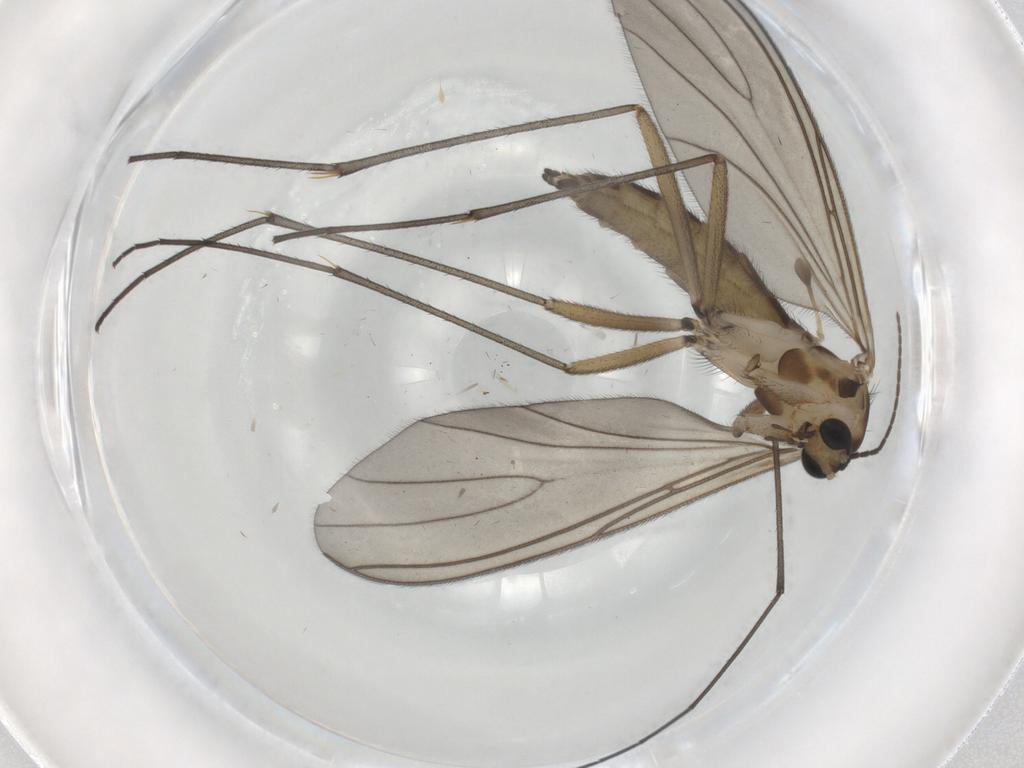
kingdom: Animalia
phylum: Arthropoda
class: Insecta
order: Diptera
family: Sciaridae
